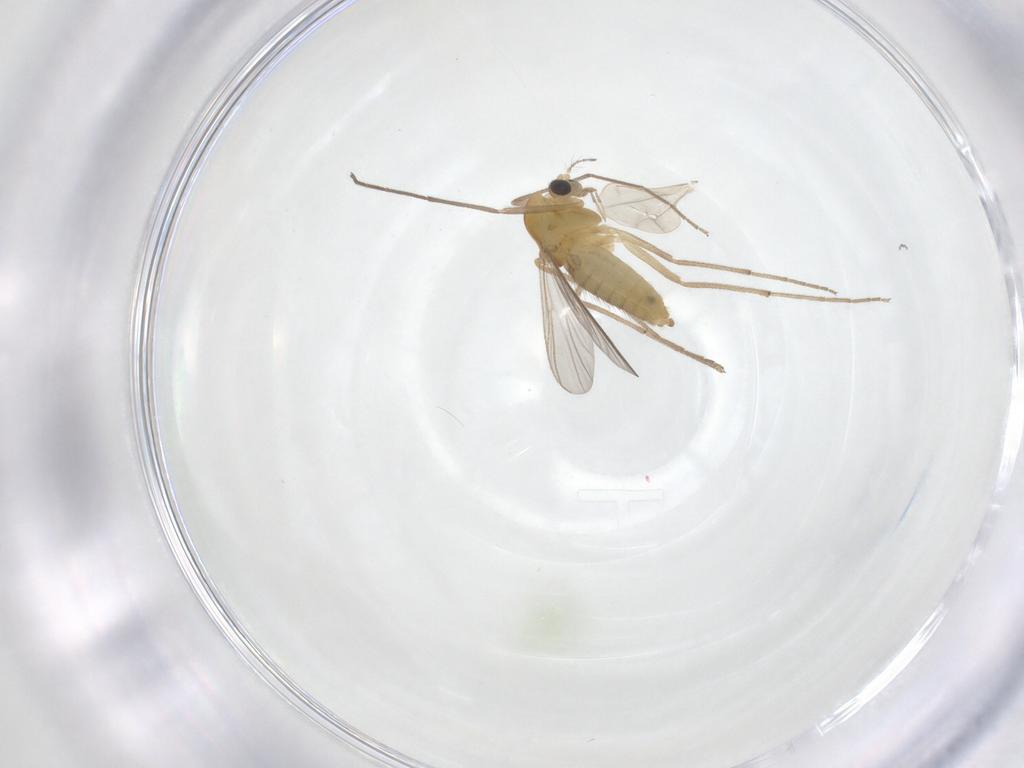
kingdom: Animalia
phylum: Arthropoda
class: Insecta
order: Diptera
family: Chironomidae
